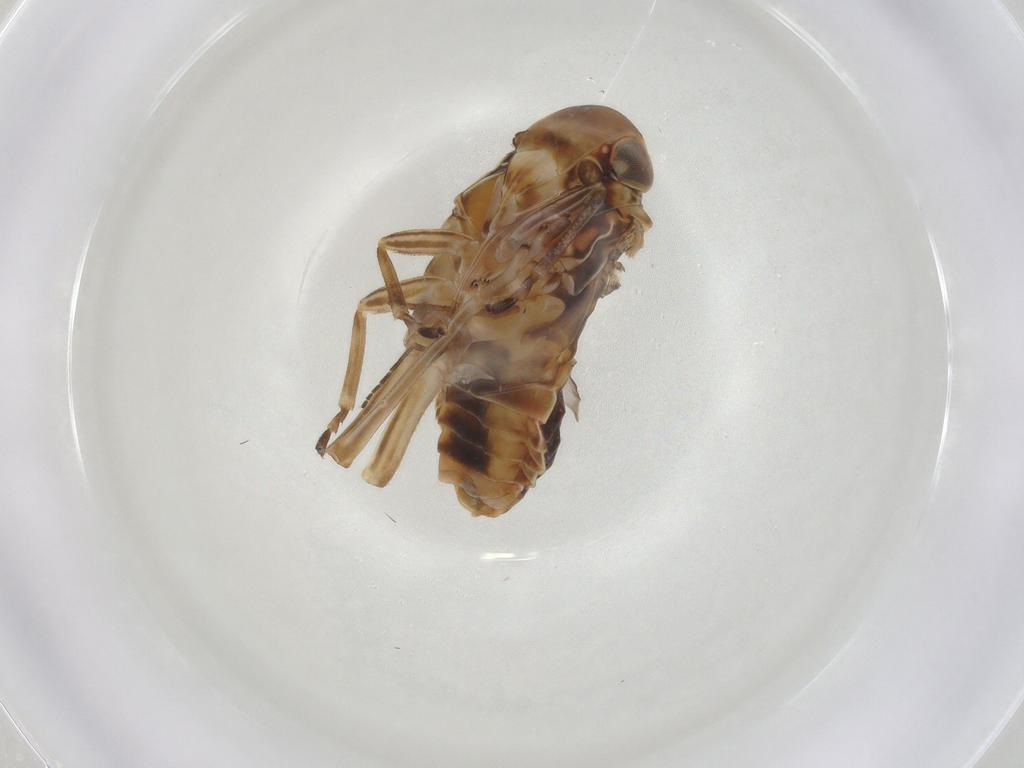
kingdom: Animalia
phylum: Arthropoda
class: Insecta
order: Hemiptera
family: Achilidae
